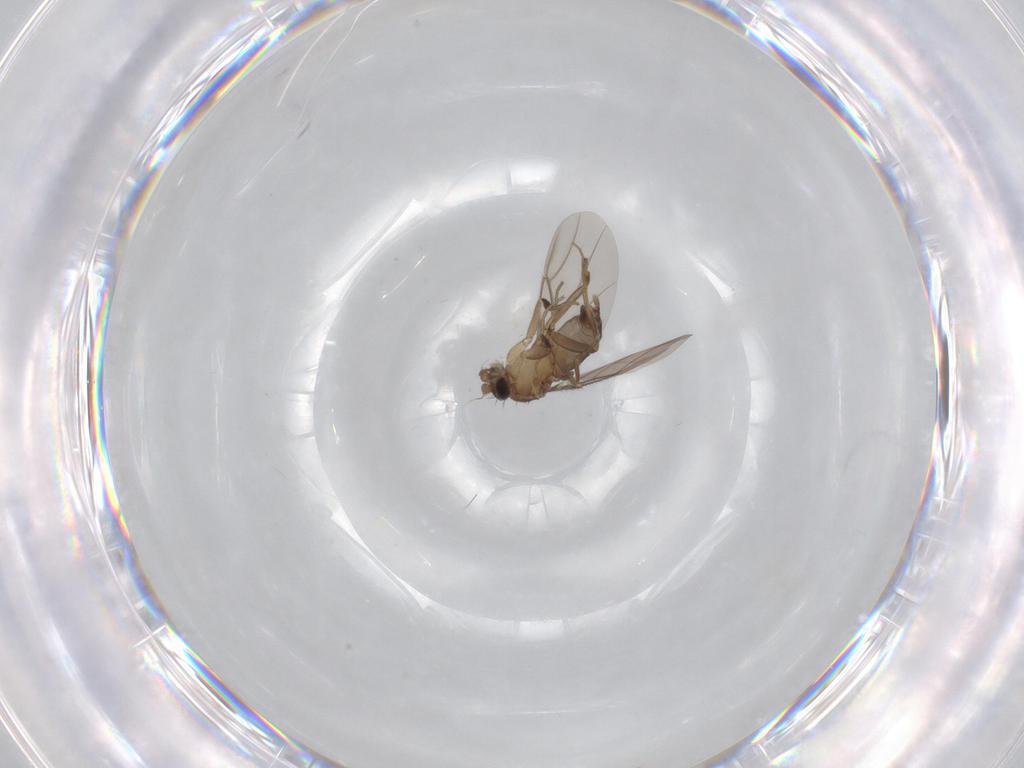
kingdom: Animalia
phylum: Arthropoda
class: Insecta
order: Diptera
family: Phoridae
